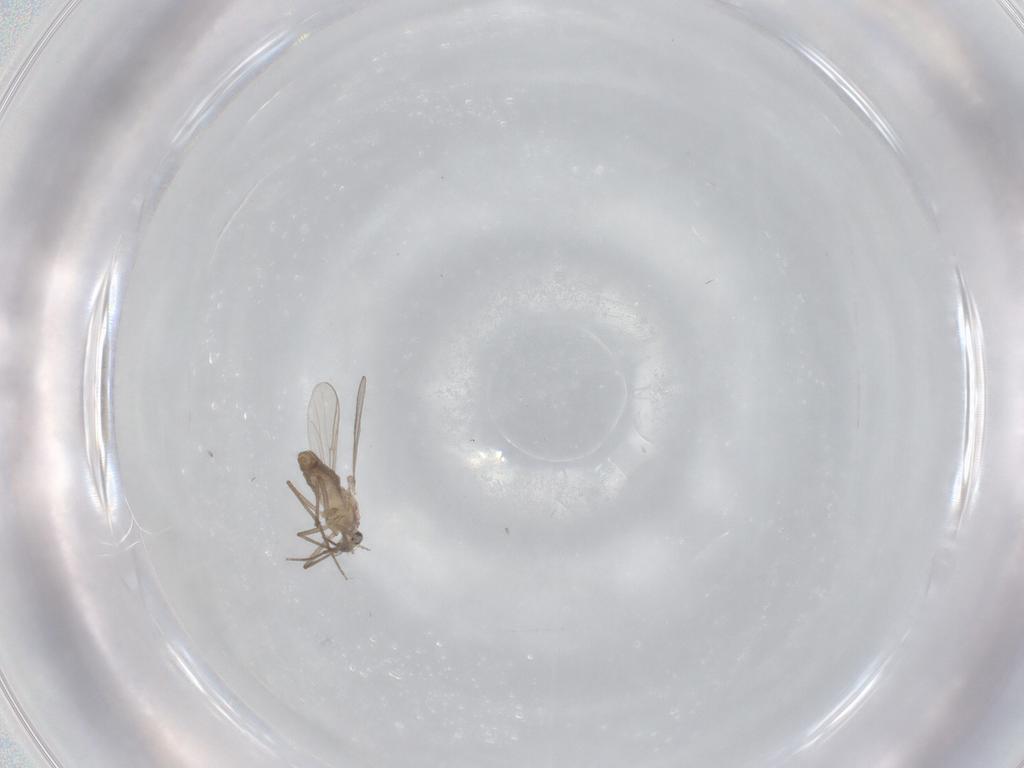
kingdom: Animalia
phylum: Arthropoda
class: Insecta
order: Diptera
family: Chironomidae
